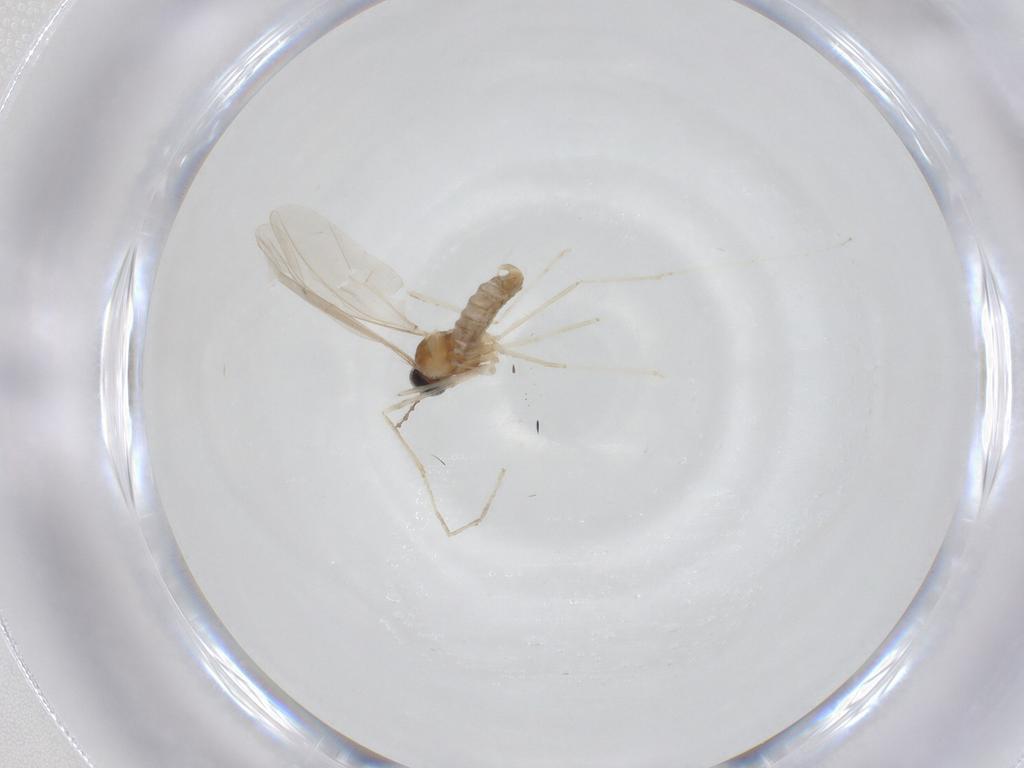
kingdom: Animalia
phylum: Arthropoda
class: Insecta
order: Diptera
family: Cecidomyiidae
